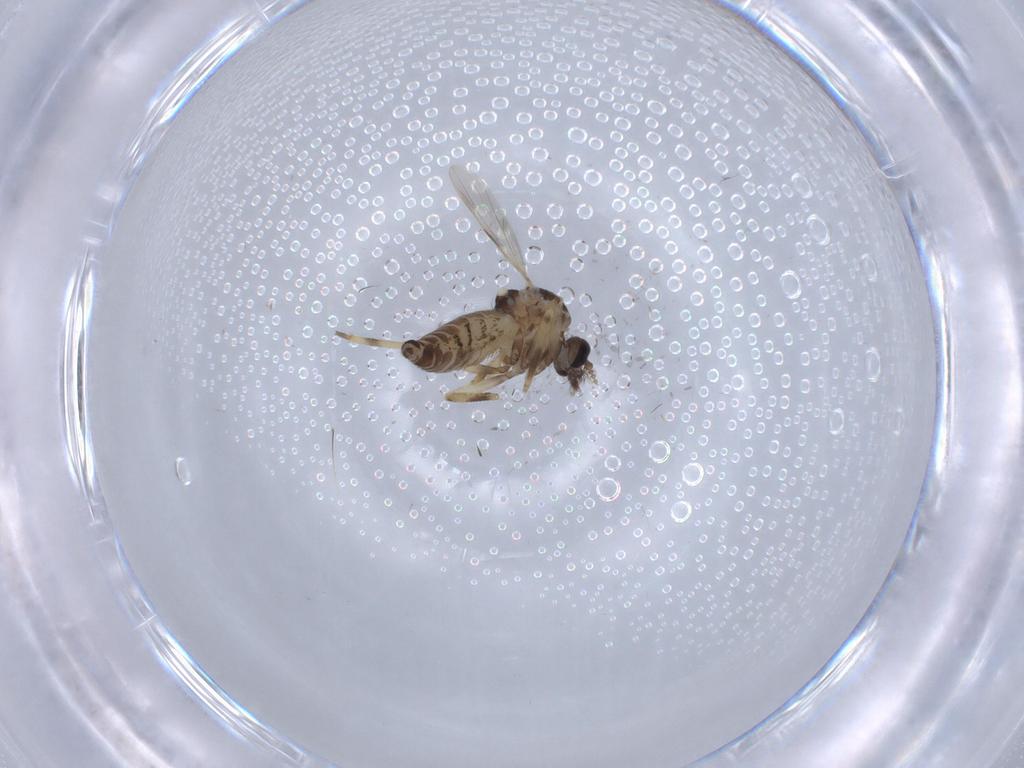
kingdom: Animalia
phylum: Arthropoda
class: Insecta
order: Diptera
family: Ceratopogonidae
